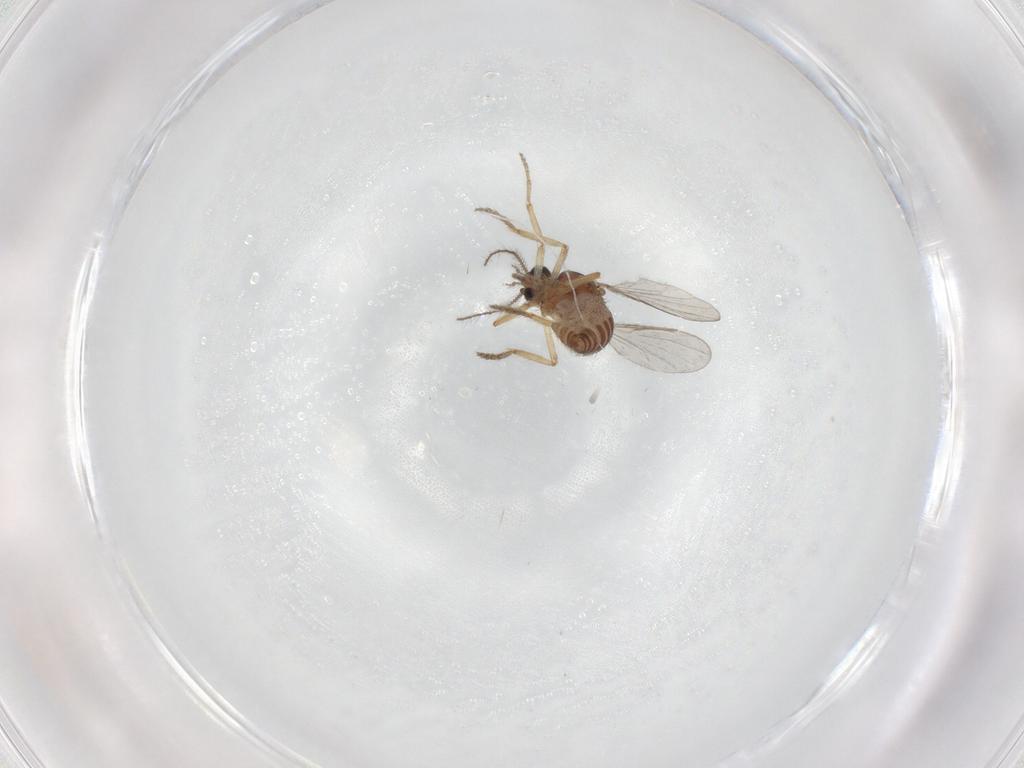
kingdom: Animalia
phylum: Arthropoda
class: Insecta
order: Diptera
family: Ceratopogonidae
